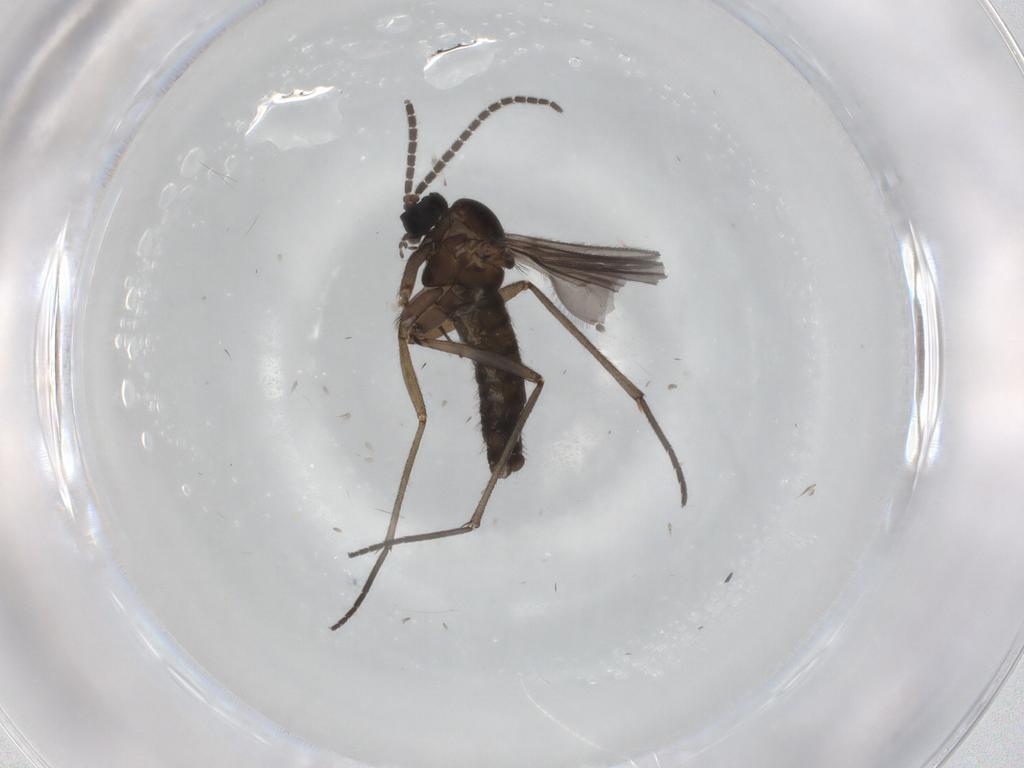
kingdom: Animalia
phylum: Arthropoda
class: Insecta
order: Diptera
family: Sciaridae
